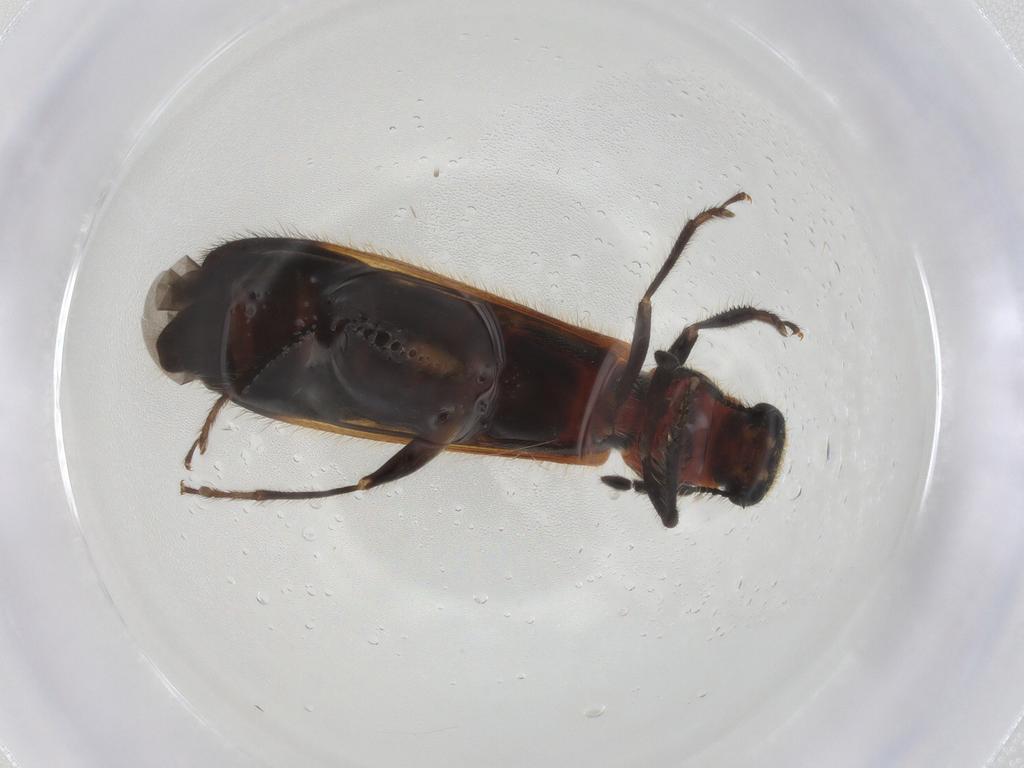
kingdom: Animalia
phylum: Arthropoda
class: Insecta
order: Coleoptera
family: Cleridae
